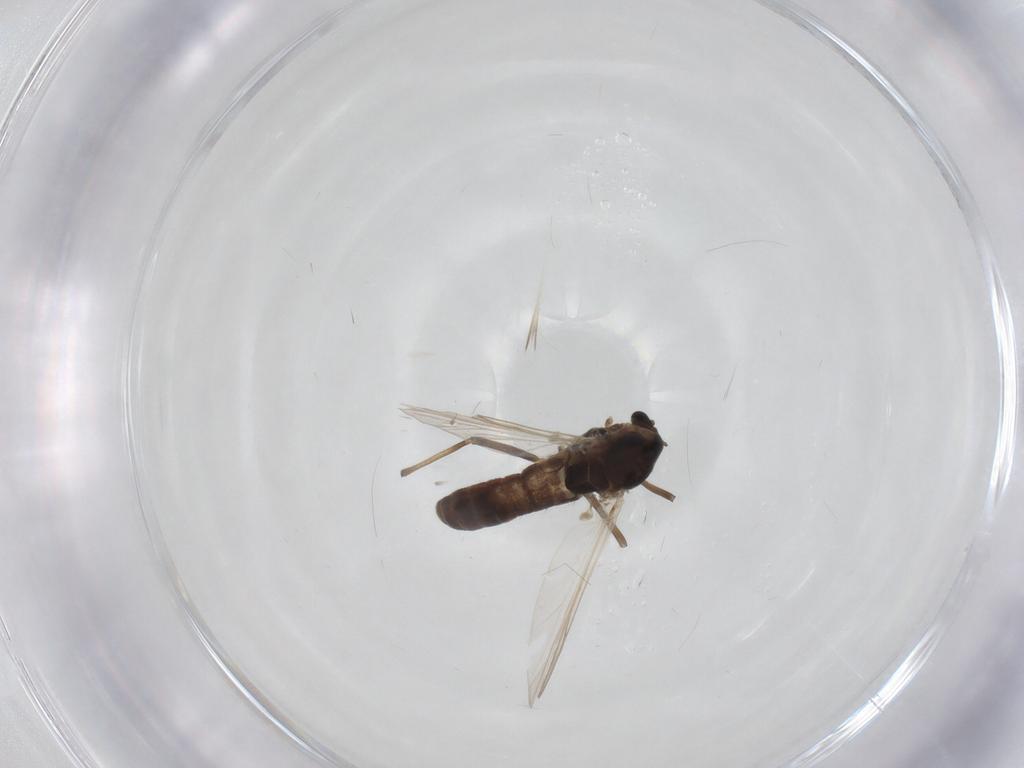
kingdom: Animalia
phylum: Arthropoda
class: Insecta
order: Diptera
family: Chironomidae
